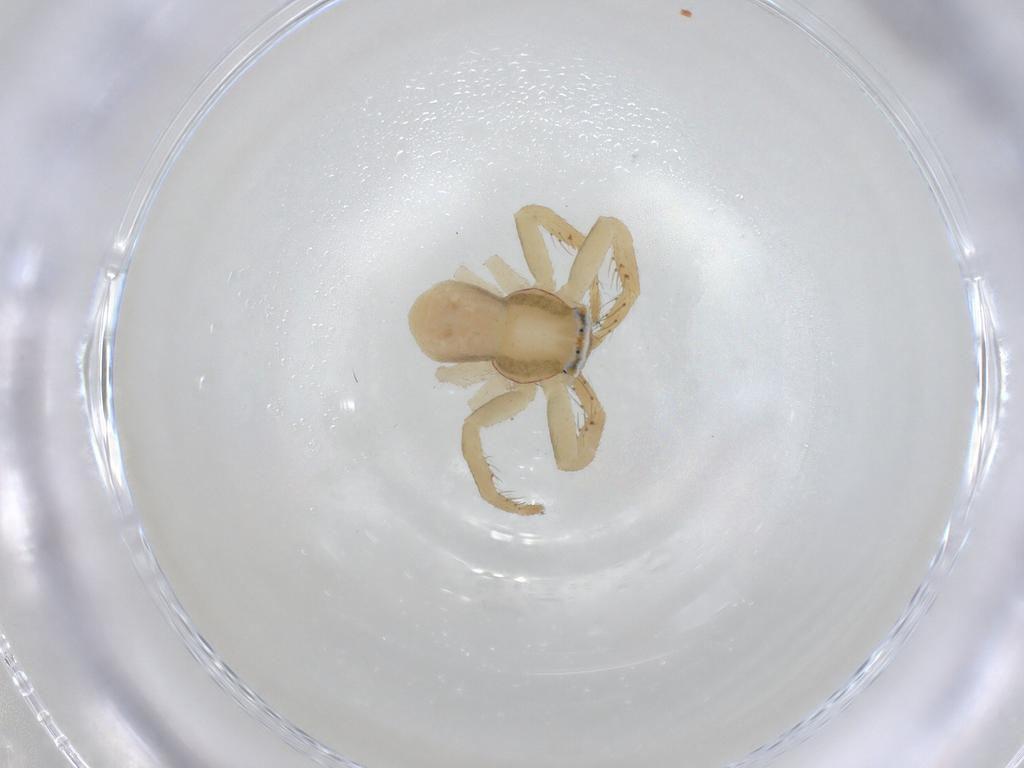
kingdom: Animalia
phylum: Arthropoda
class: Arachnida
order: Araneae
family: Thomisidae
